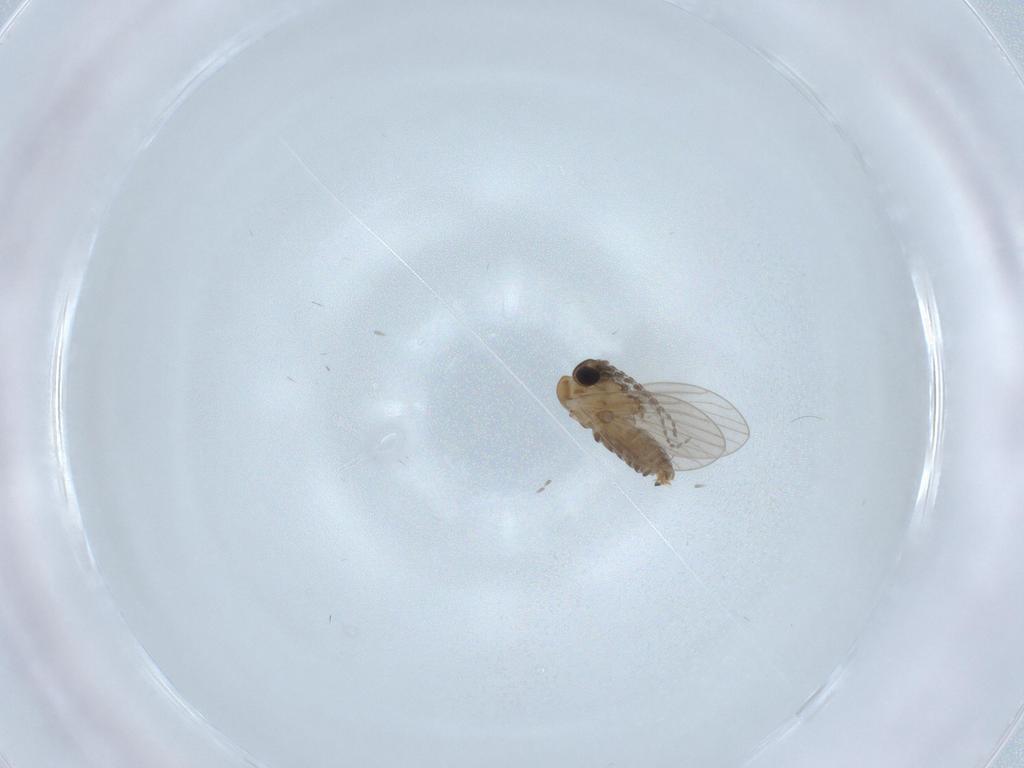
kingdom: Animalia
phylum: Arthropoda
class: Insecta
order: Diptera
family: Psychodidae
